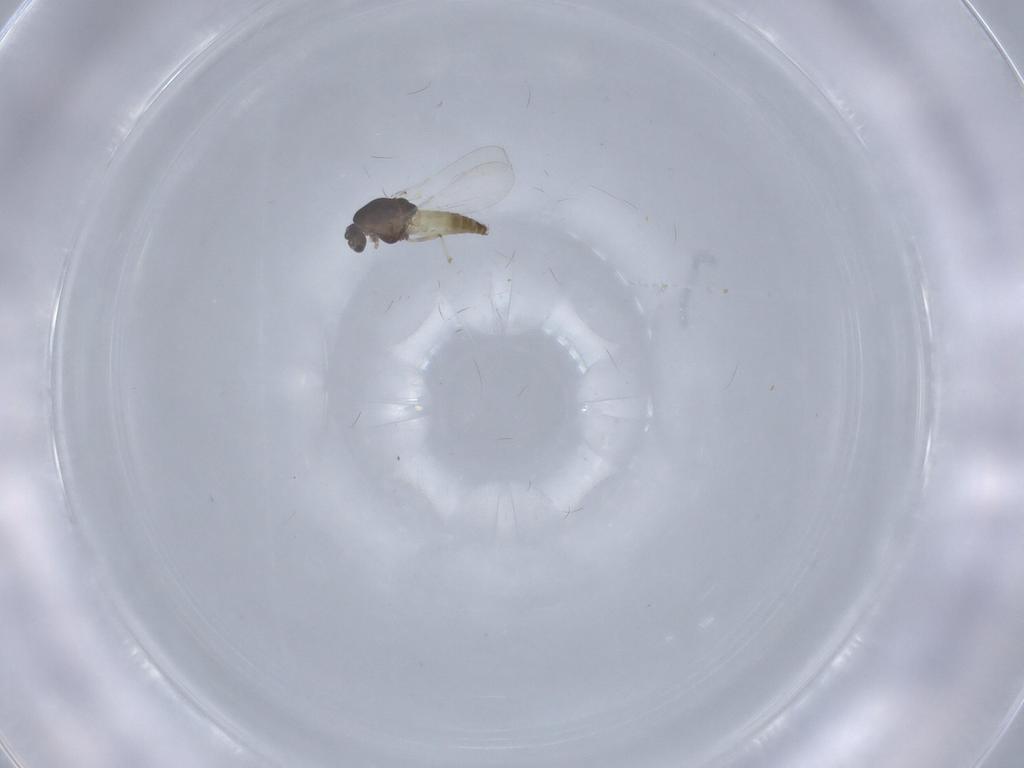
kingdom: Animalia
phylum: Arthropoda
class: Insecta
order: Diptera
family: Chironomidae
